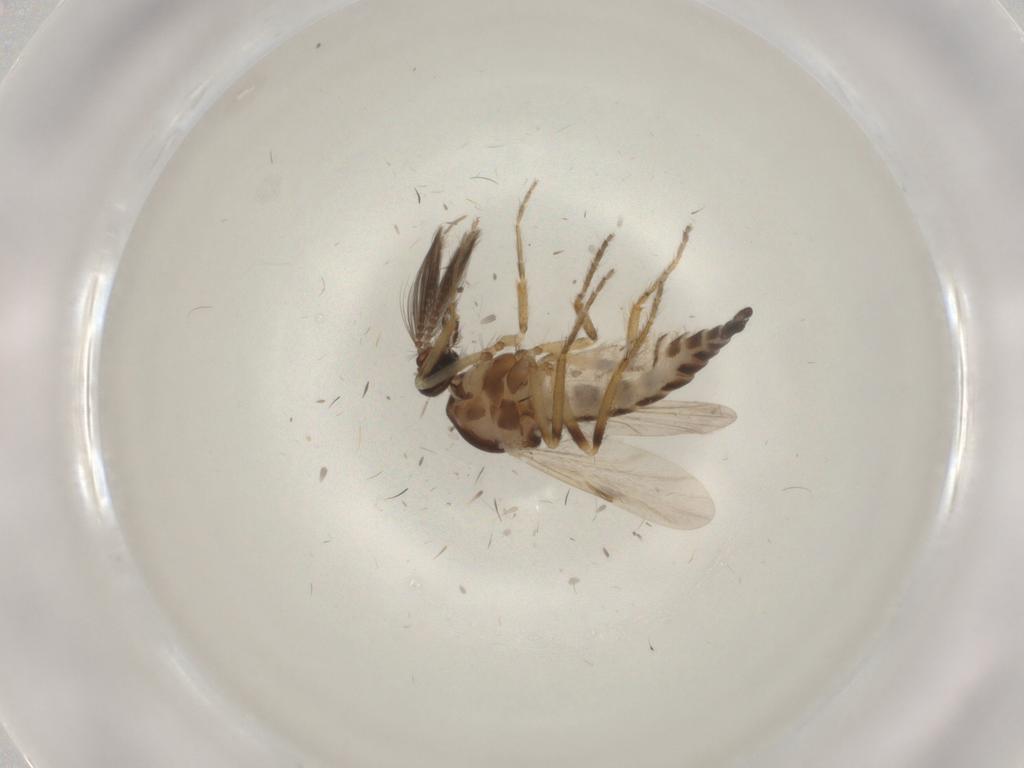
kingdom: Animalia
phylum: Arthropoda
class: Insecta
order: Diptera
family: Ceratopogonidae
